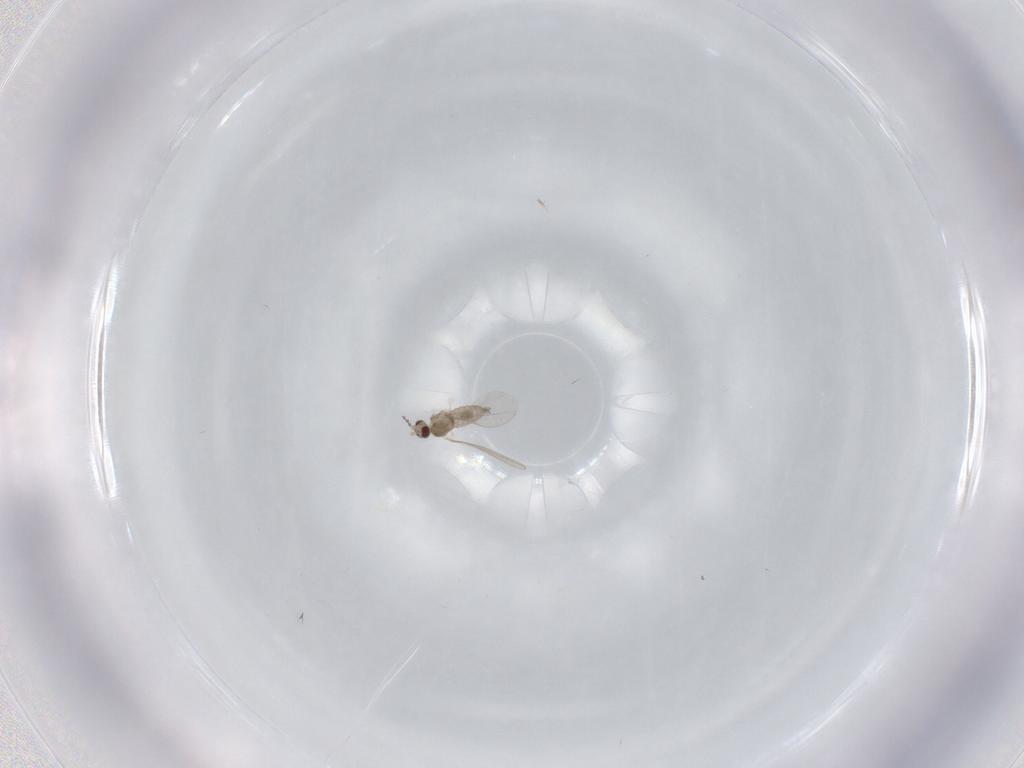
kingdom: Animalia
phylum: Arthropoda
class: Insecta
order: Diptera
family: Cecidomyiidae
